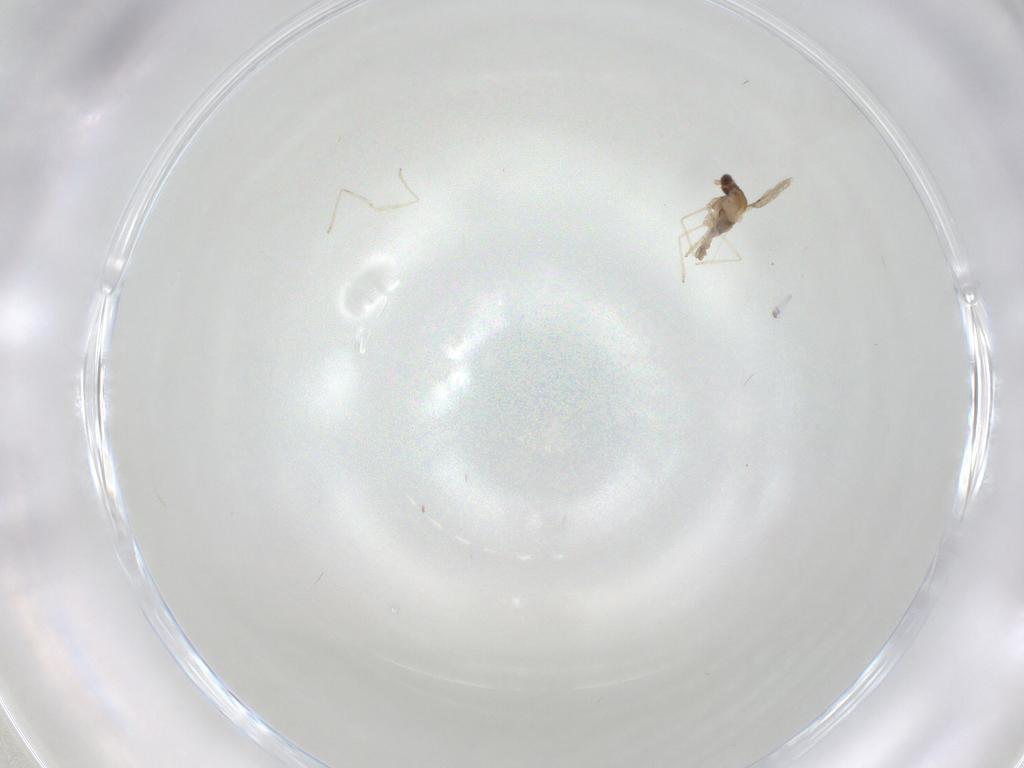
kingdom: Animalia
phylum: Arthropoda
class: Insecta
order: Diptera
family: Cecidomyiidae
